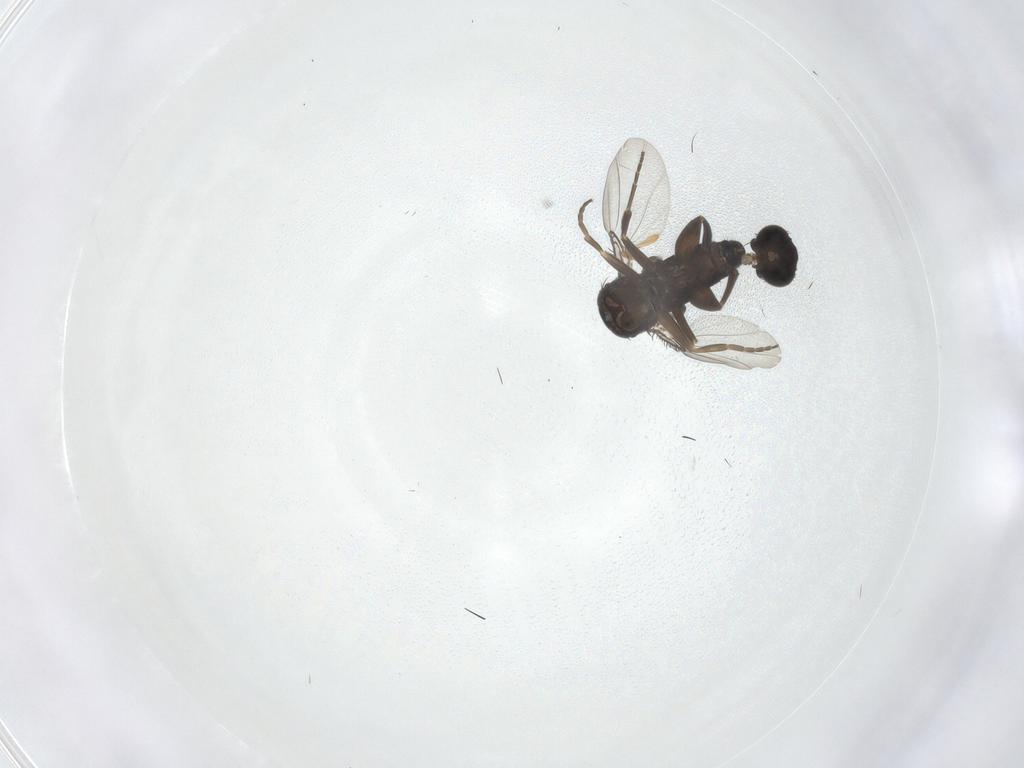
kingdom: Animalia
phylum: Arthropoda
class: Insecta
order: Diptera
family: Mycetophilidae
